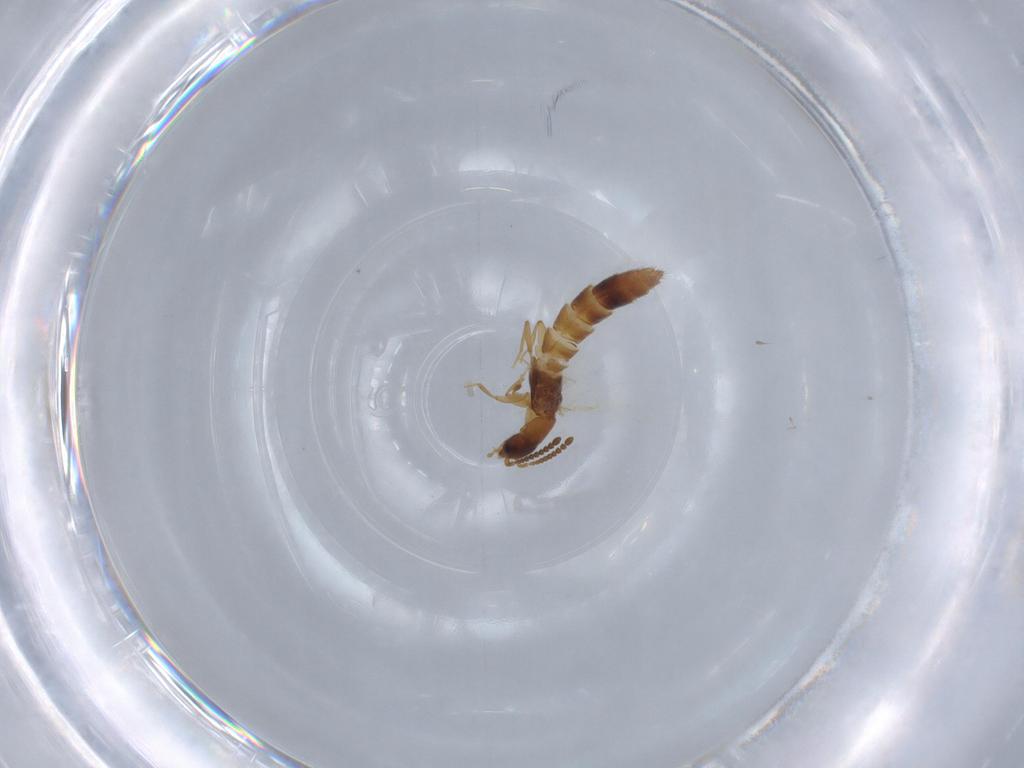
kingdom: Animalia
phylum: Arthropoda
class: Insecta
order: Coleoptera
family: Staphylinidae
